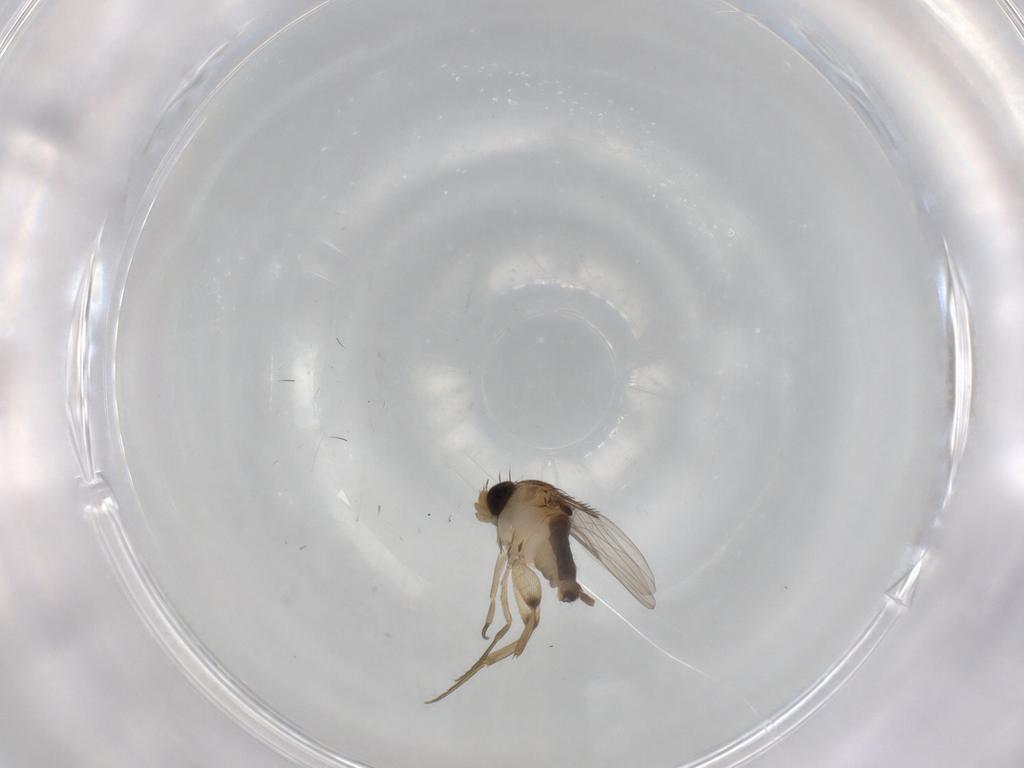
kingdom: Animalia
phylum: Arthropoda
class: Insecta
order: Diptera
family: Phoridae
